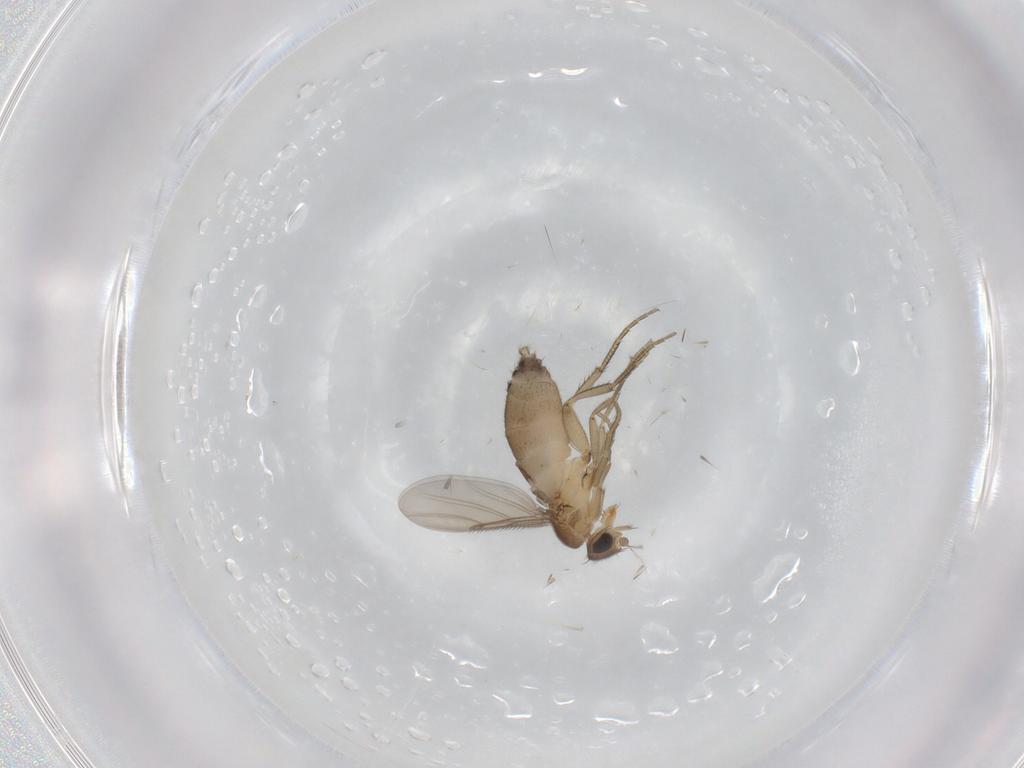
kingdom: Animalia
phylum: Arthropoda
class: Insecta
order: Diptera
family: Phoridae
